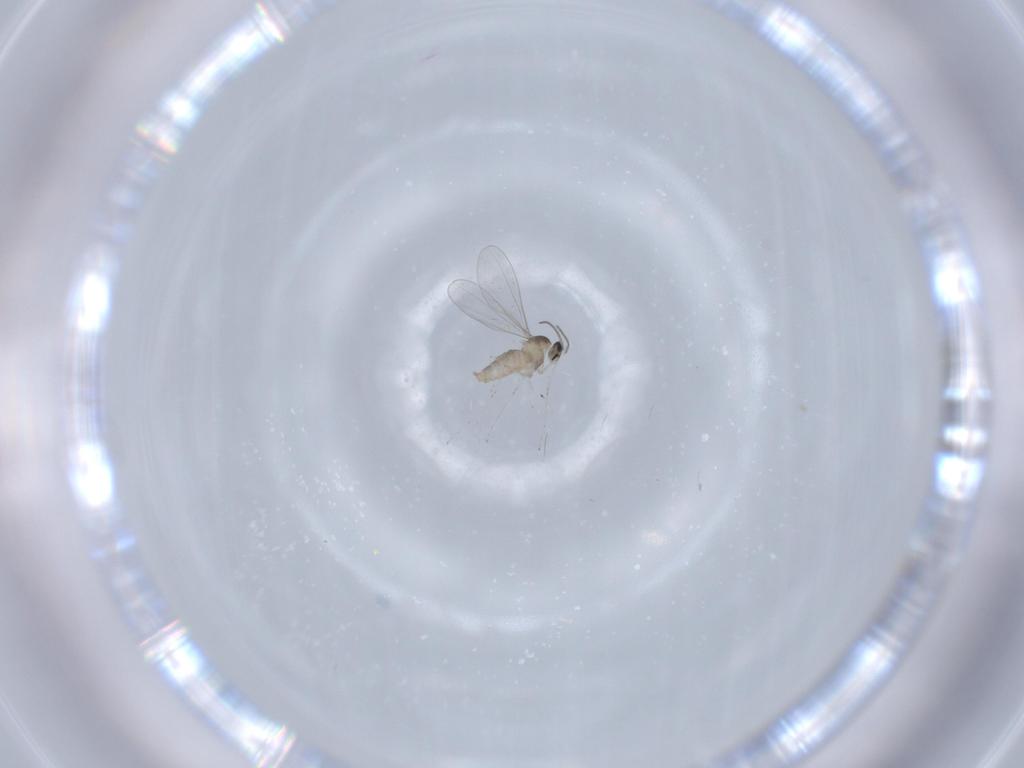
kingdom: Animalia
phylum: Arthropoda
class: Insecta
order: Diptera
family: Cecidomyiidae
